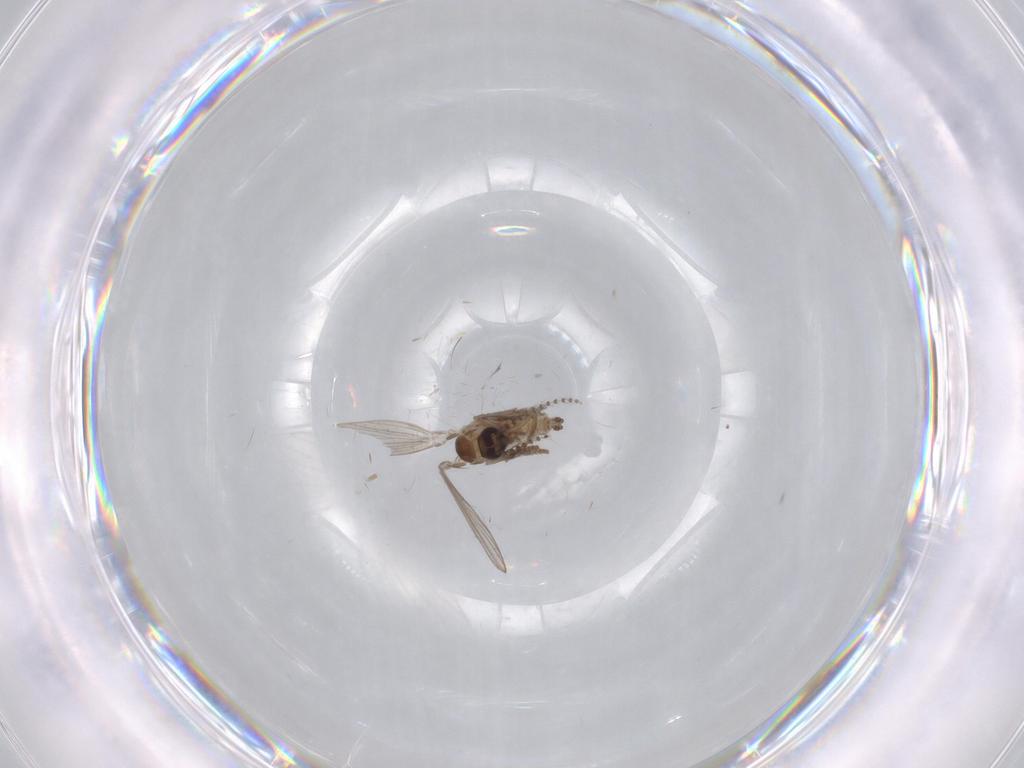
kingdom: Animalia
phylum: Arthropoda
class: Insecta
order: Diptera
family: Psychodidae
